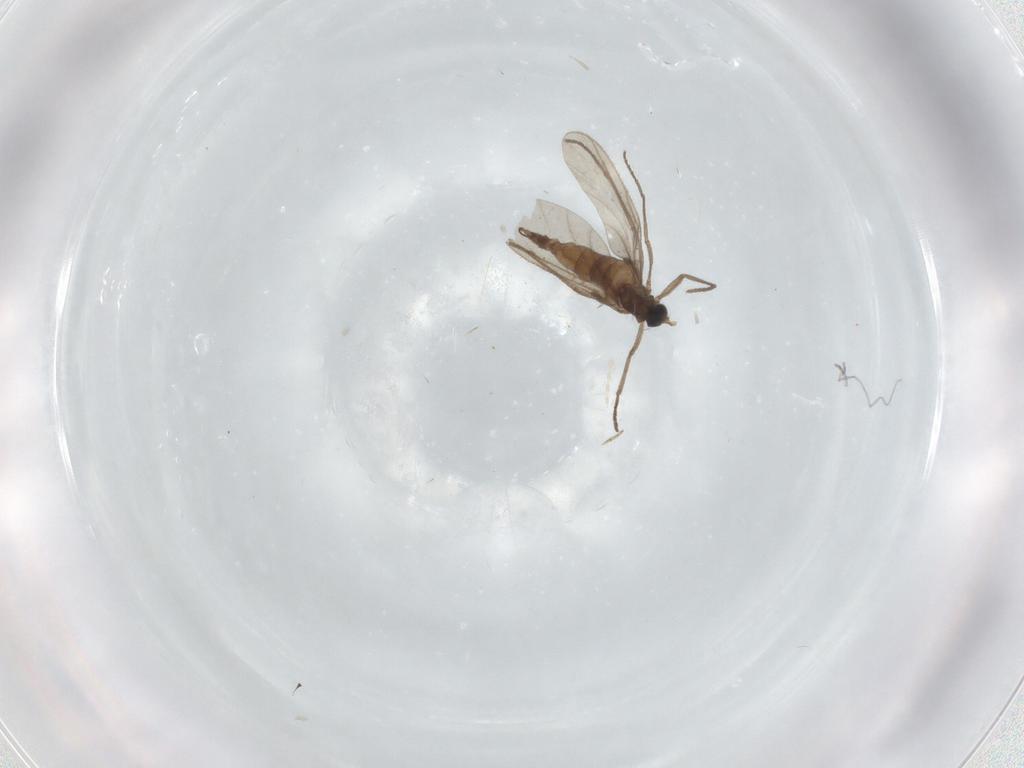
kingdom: Animalia
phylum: Arthropoda
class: Insecta
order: Diptera
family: Sciaridae
